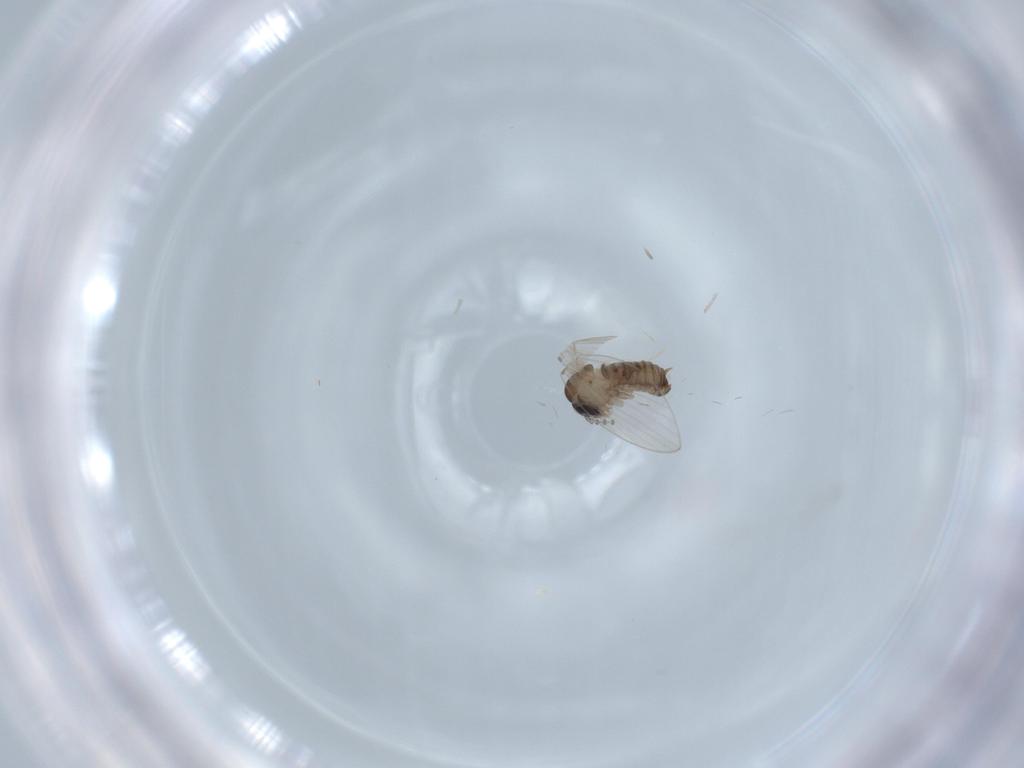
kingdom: Animalia
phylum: Arthropoda
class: Insecta
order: Diptera
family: Psychodidae
